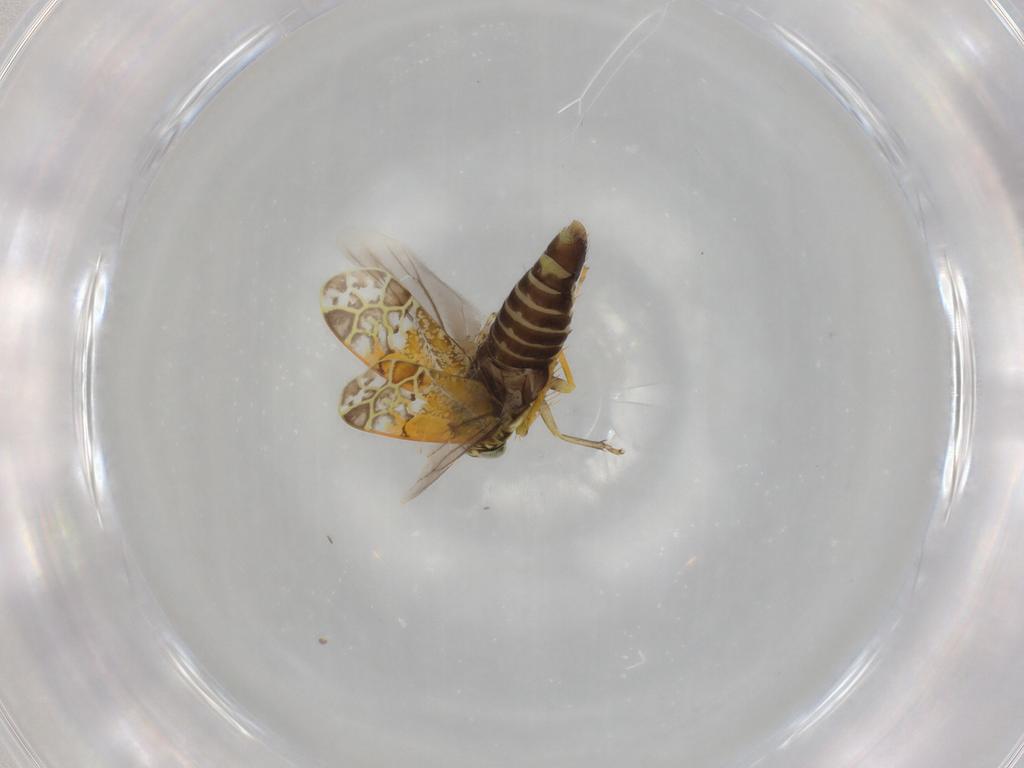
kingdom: Animalia
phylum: Arthropoda
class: Insecta
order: Hemiptera
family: Cicadellidae
